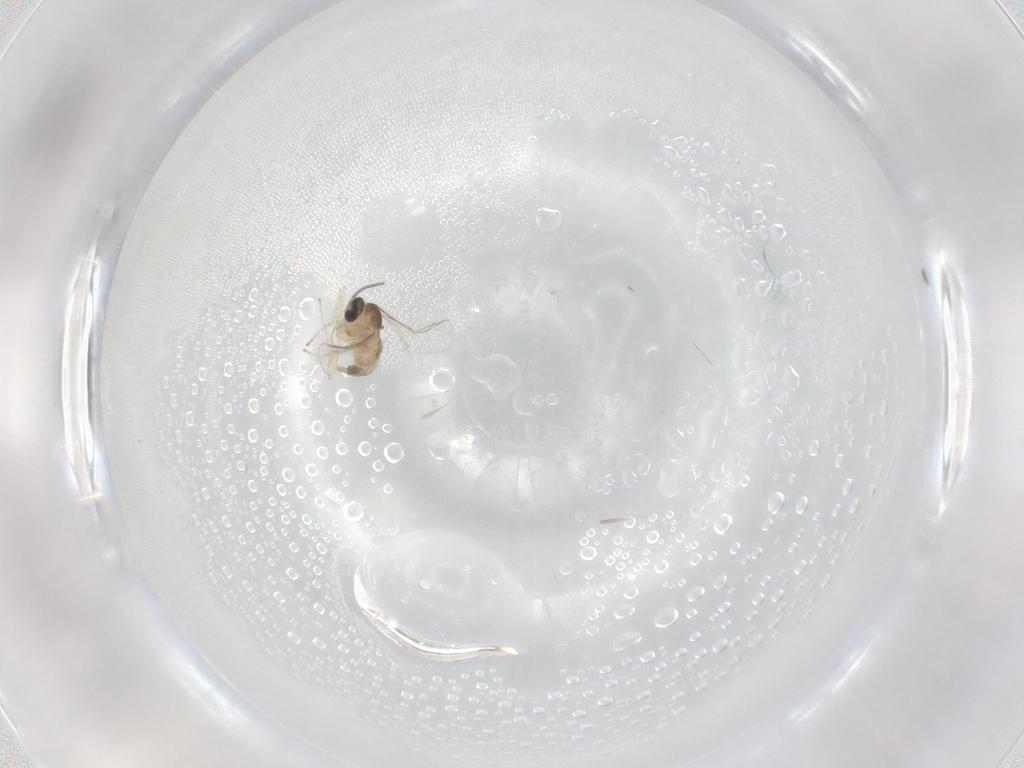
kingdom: Animalia
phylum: Arthropoda
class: Insecta
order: Diptera
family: Cecidomyiidae
